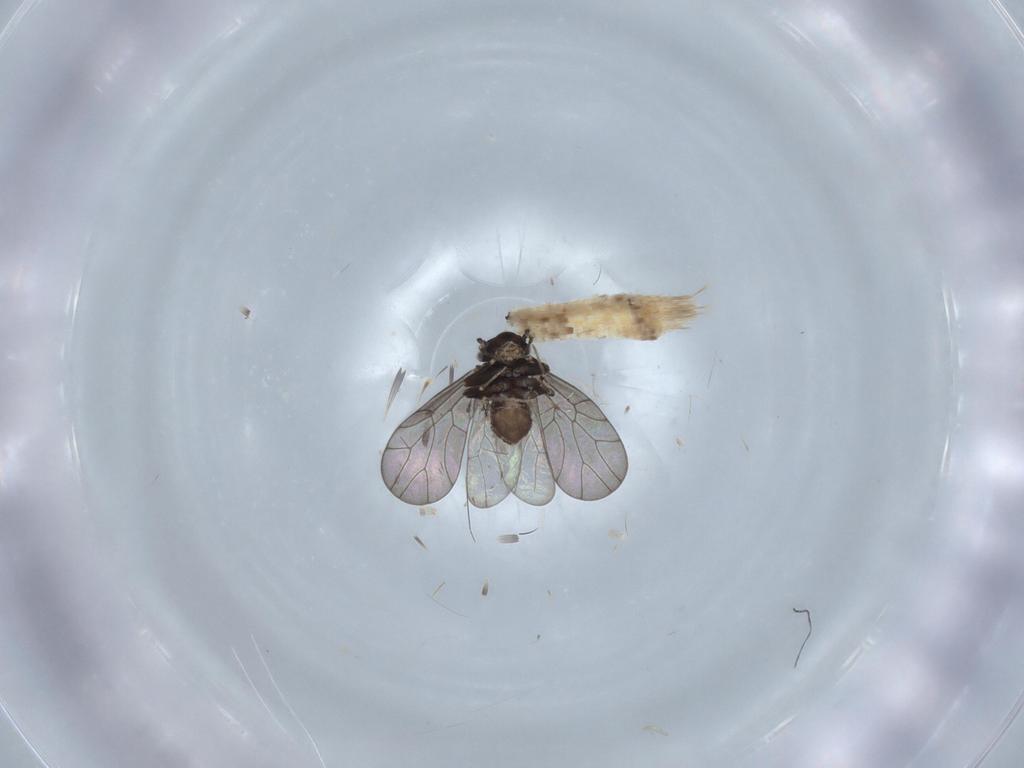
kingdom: Animalia
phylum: Arthropoda
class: Insecta
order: Psocodea
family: Lepidopsocidae
